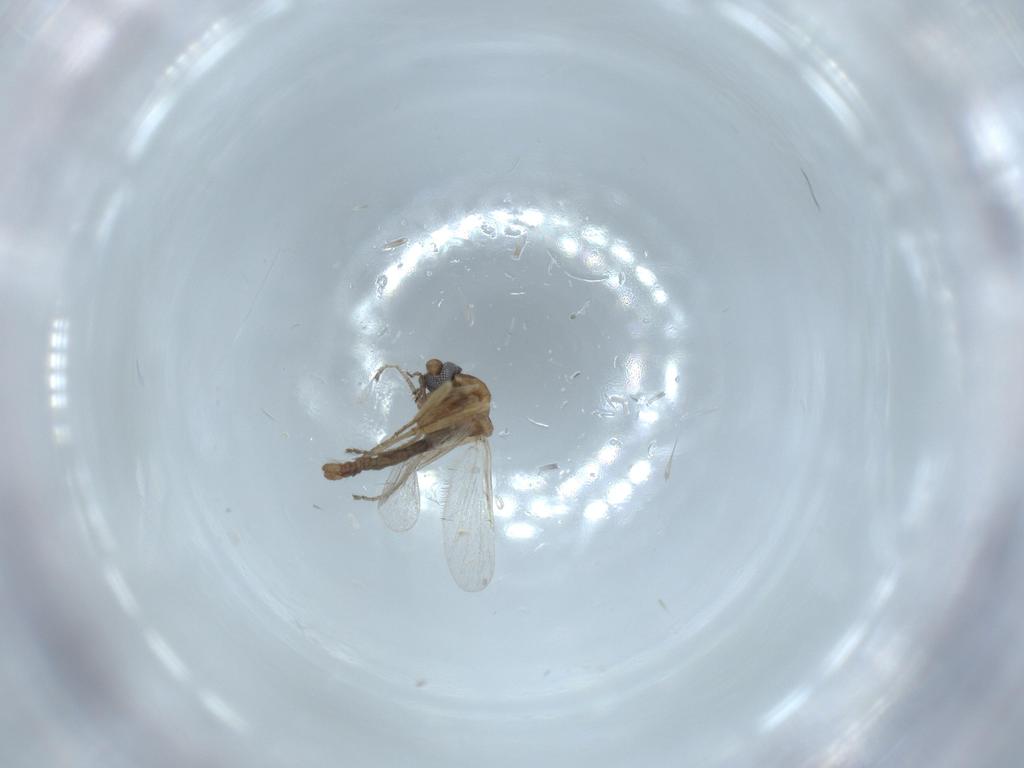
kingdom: Animalia
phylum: Arthropoda
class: Insecta
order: Diptera
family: Ceratopogonidae
